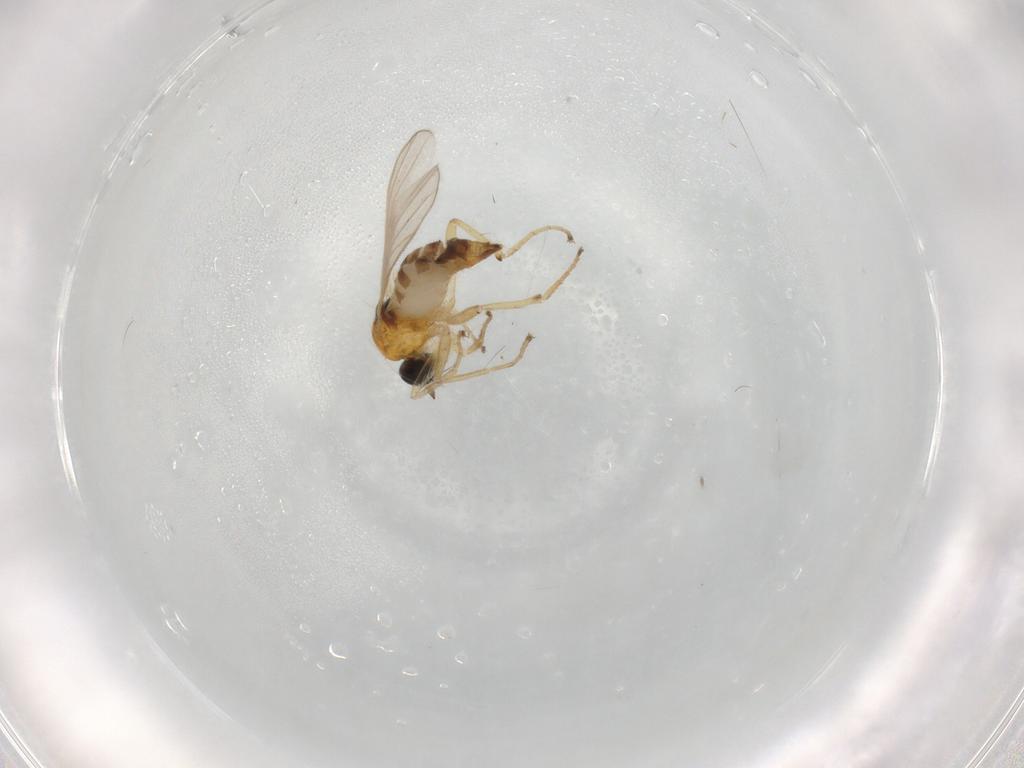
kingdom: Animalia
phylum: Arthropoda
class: Insecta
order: Diptera
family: Hybotidae
